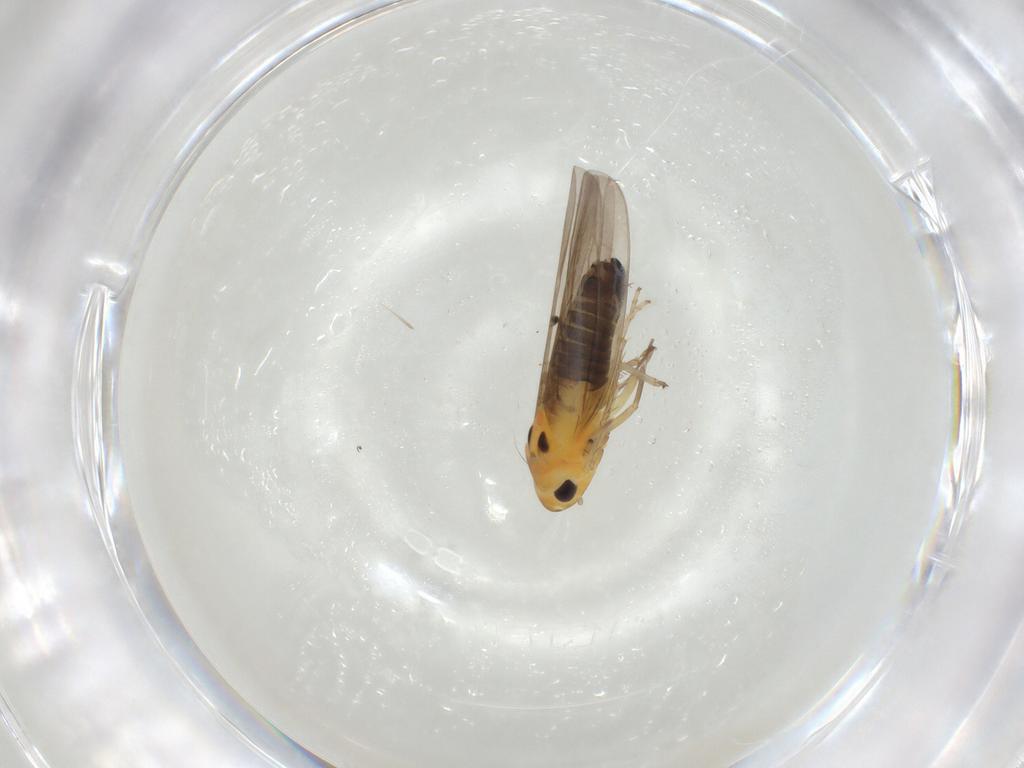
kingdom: Animalia
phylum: Arthropoda
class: Insecta
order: Hemiptera
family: Cicadellidae
